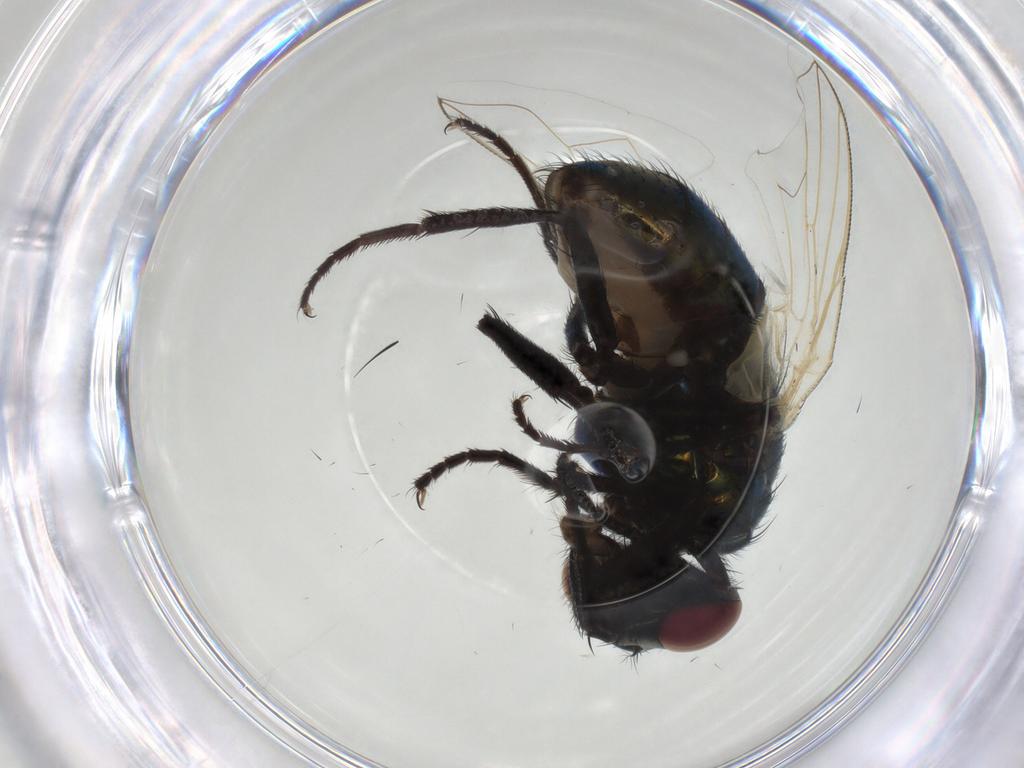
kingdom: Animalia
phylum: Arthropoda
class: Insecta
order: Diptera
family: Muscidae
